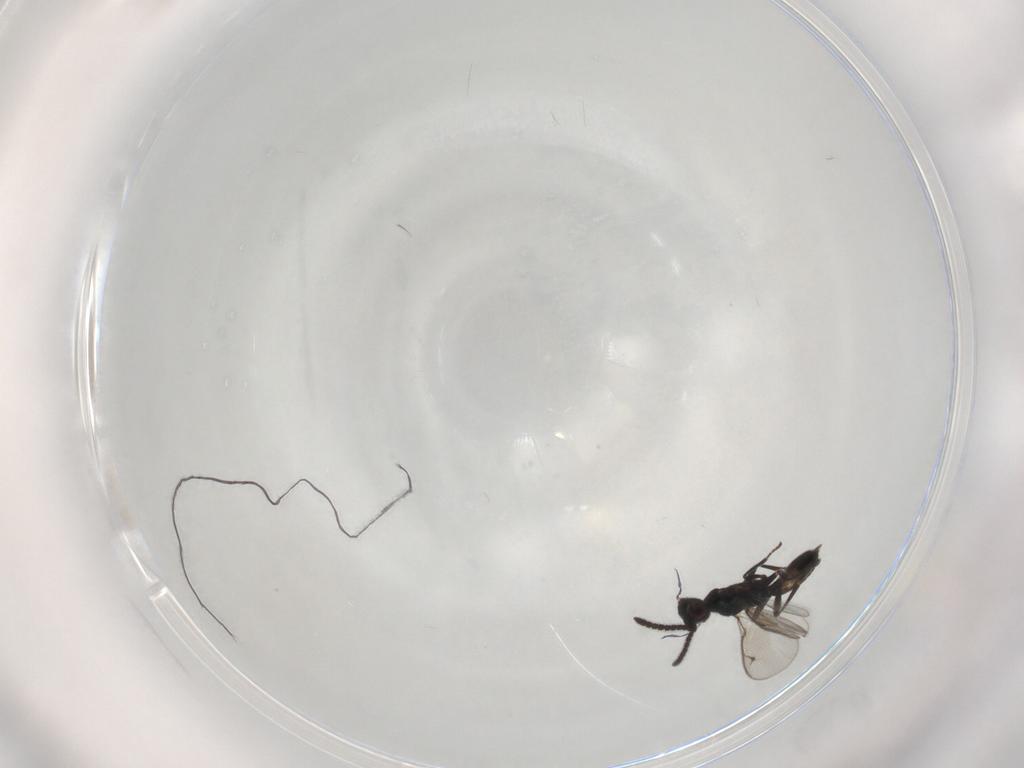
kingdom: Animalia
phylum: Arthropoda
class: Insecta
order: Hymenoptera
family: Eupelmidae
